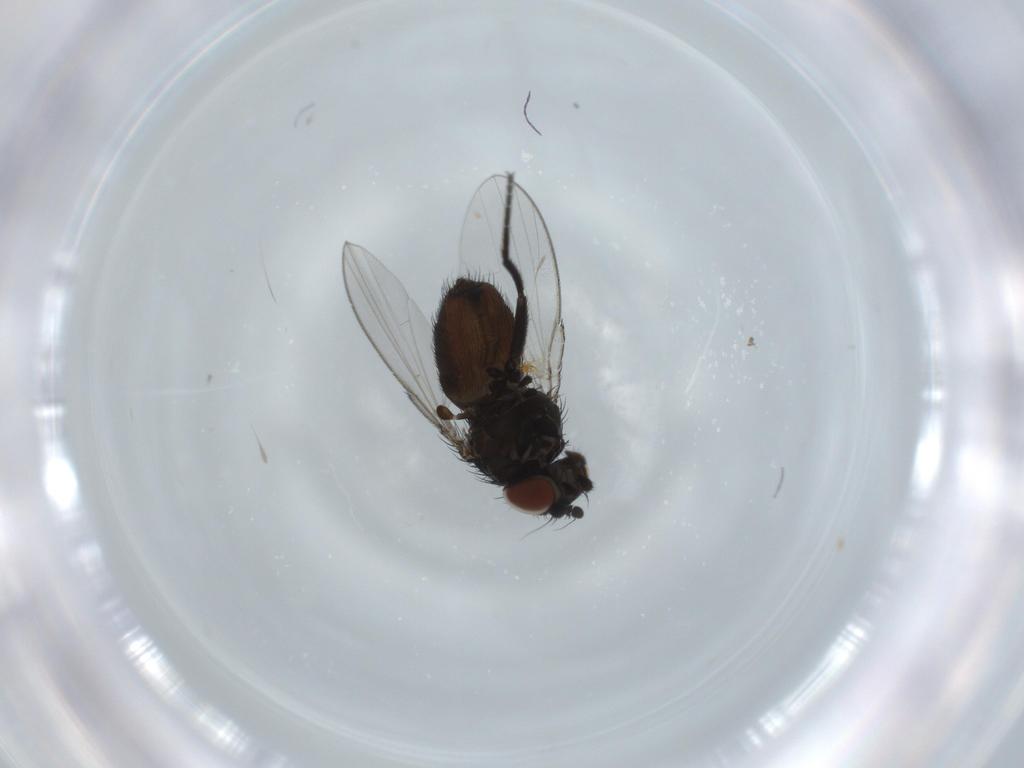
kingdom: Animalia
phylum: Arthropoda
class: Insecta
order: Diptera
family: Milichiidae
